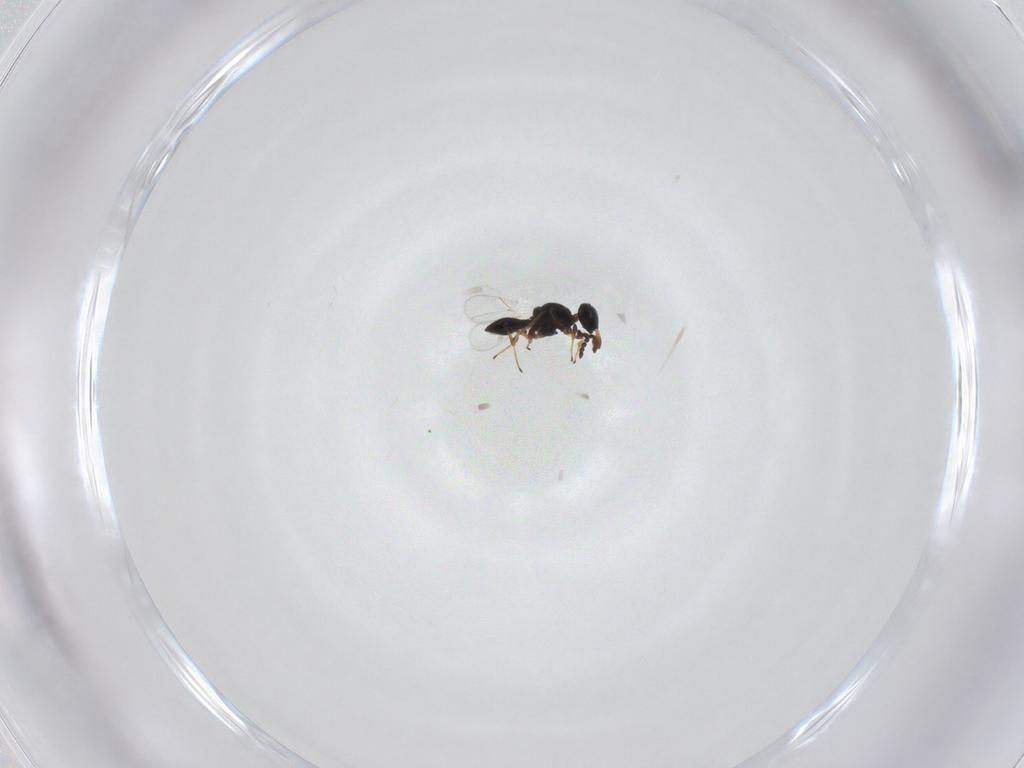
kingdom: Animalia
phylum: Arthropoda
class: Insecta
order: Hymenoptera
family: Platygastridae
